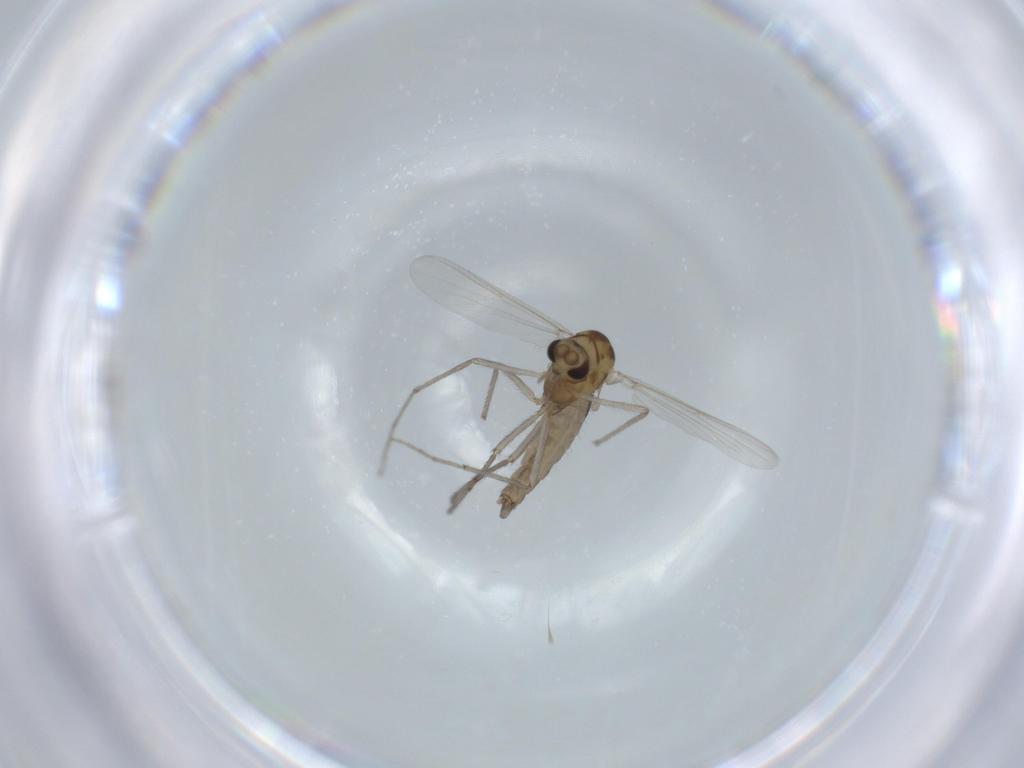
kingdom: Animalia
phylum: Arthropoda
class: Insecta
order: Diptera
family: Chironomidae
